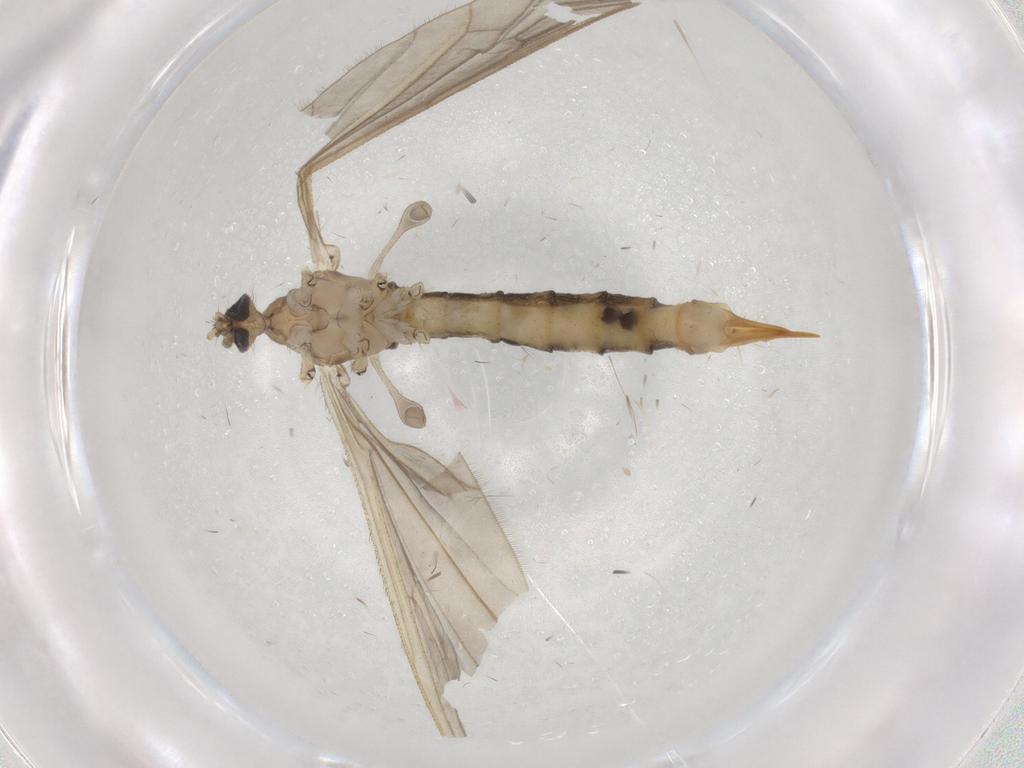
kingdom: Animalia
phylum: Arthropoda
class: Insecta
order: Diptera
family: Limoniidae
